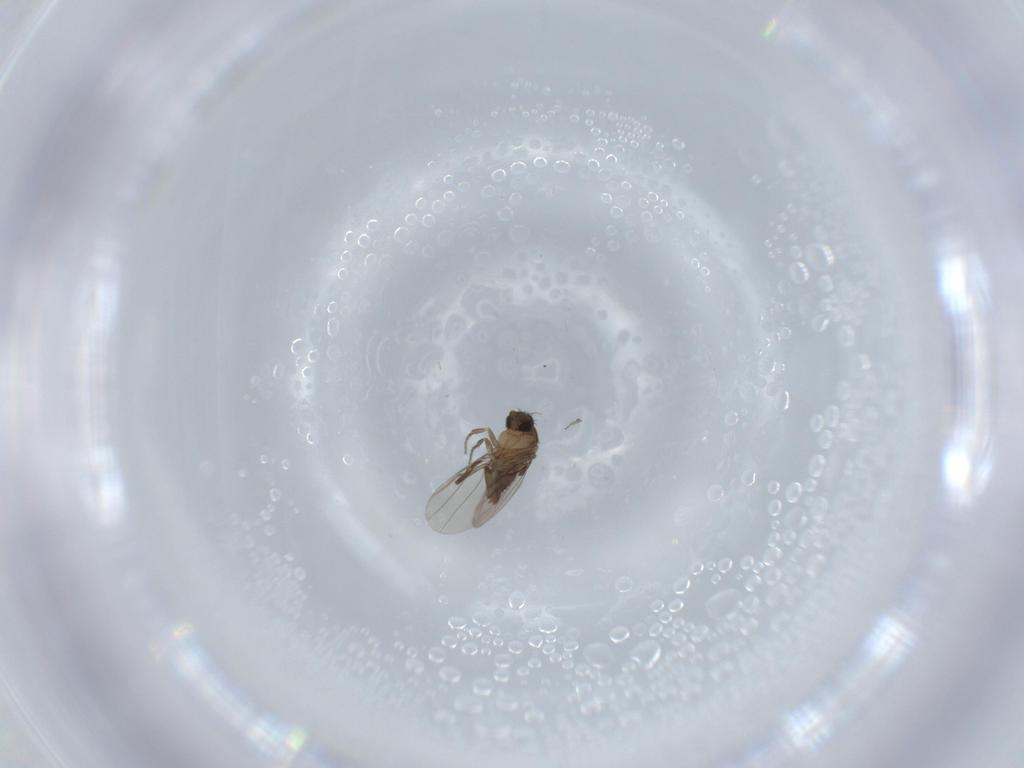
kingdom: Animalia
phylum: Arthropoda
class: Insecta
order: Diptera
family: Phoridae
